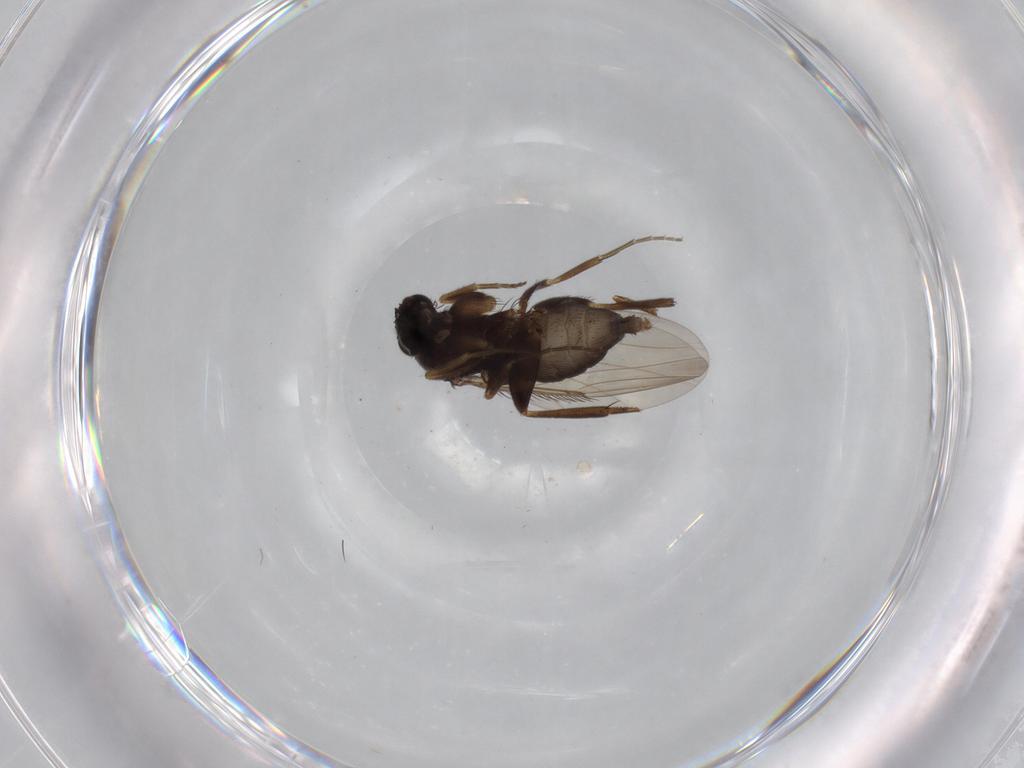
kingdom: Animalia
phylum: Arthropoda
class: Insecta
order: Diptera
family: Phoridae
